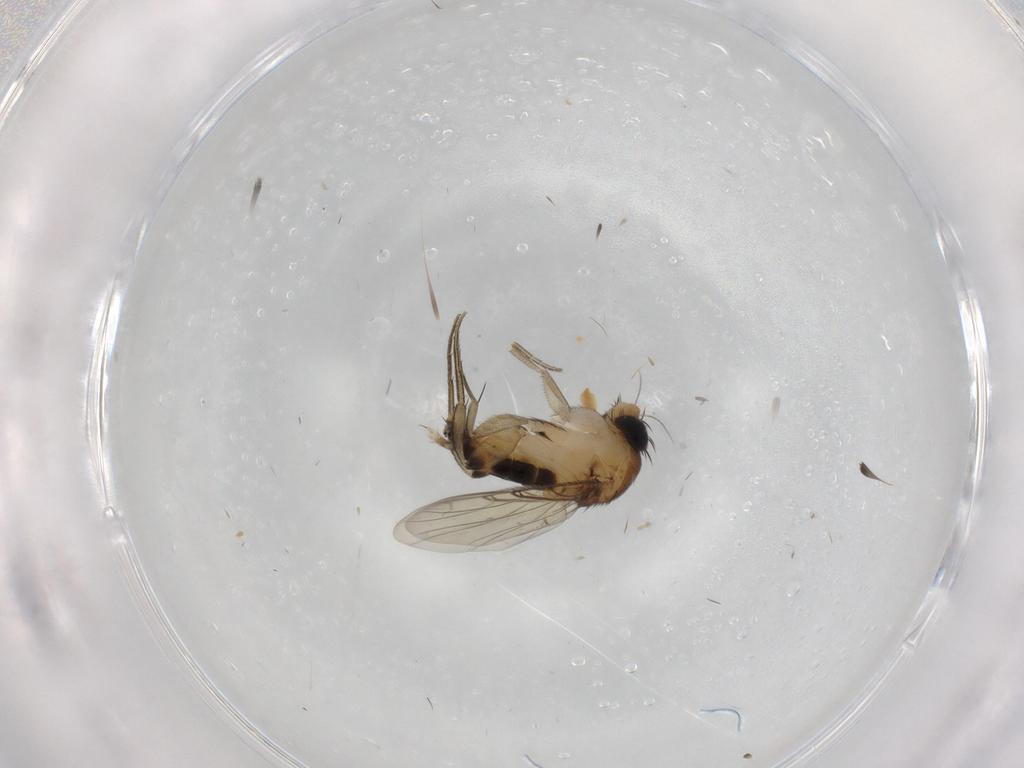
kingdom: Animalia
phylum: Arthropoda
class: Insecta
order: Diptera
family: Phoridae
